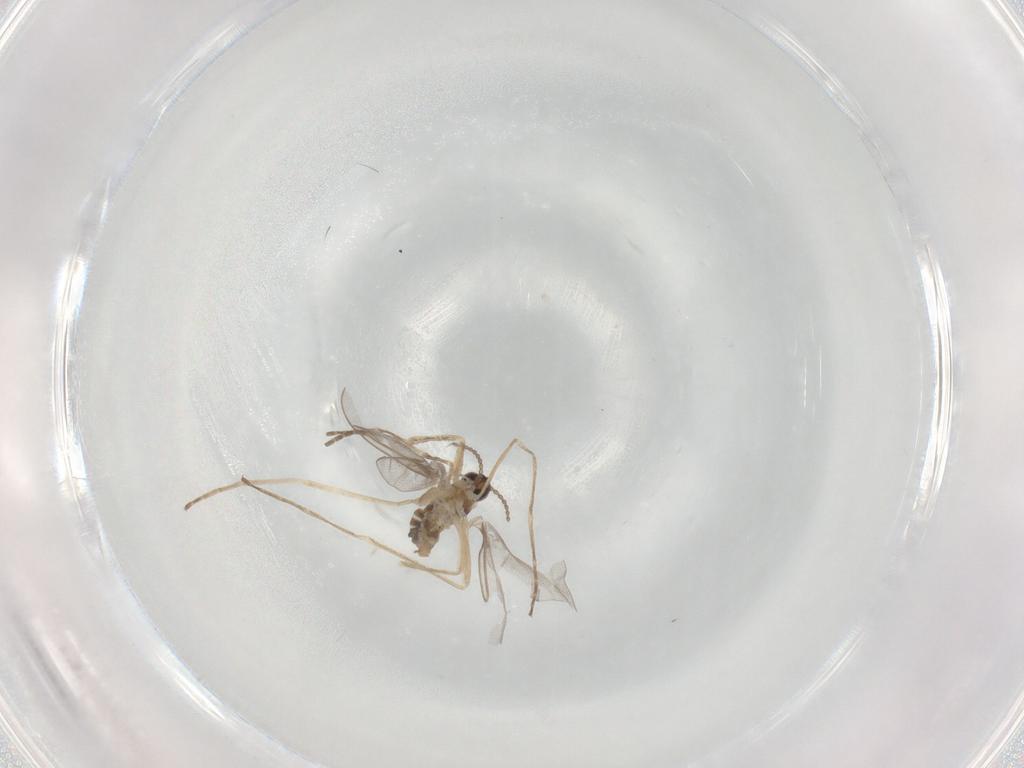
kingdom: Animalia
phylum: Arthropoda
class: Insecta
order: Diptera
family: Cecidomyiidae
